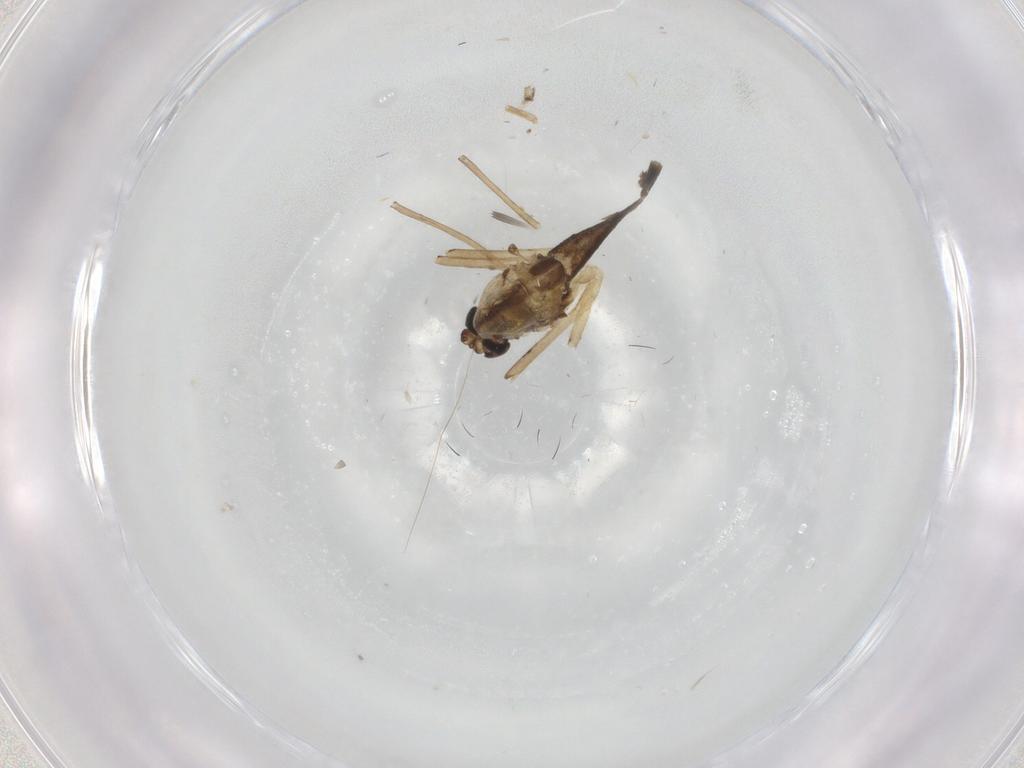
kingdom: Animalia
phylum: Arthropoda
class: Insecta
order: Diptera
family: Chironomidae
